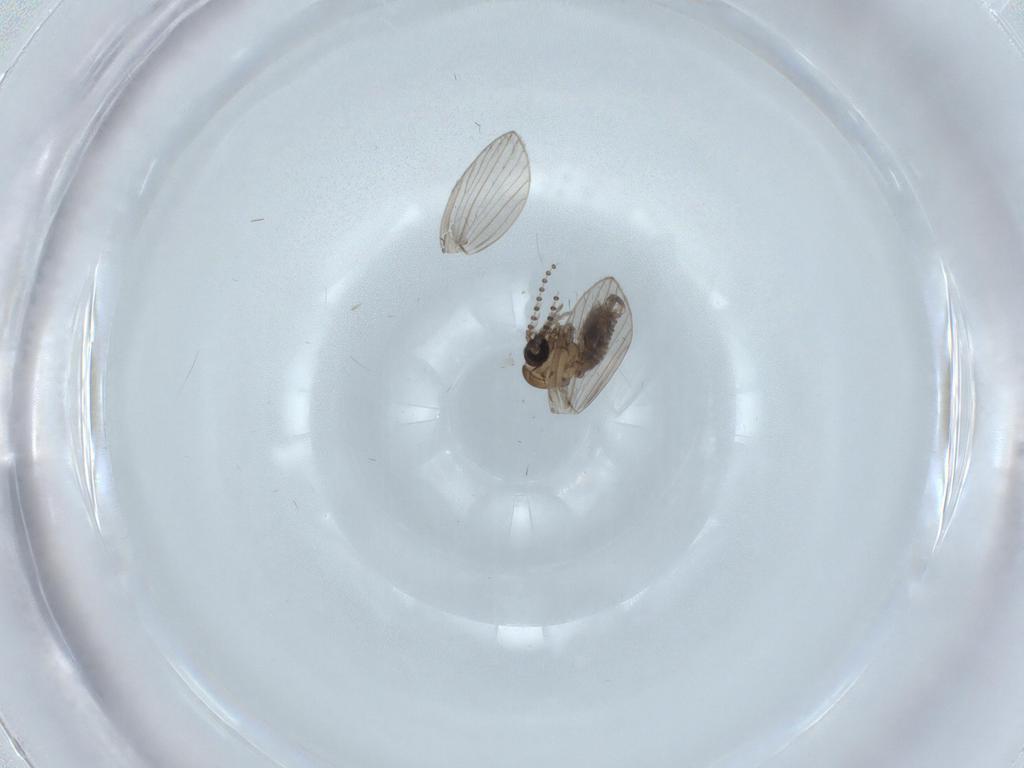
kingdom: Animalia
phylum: Arthropoda
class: Insecta
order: Diptera
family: Psychodidae
